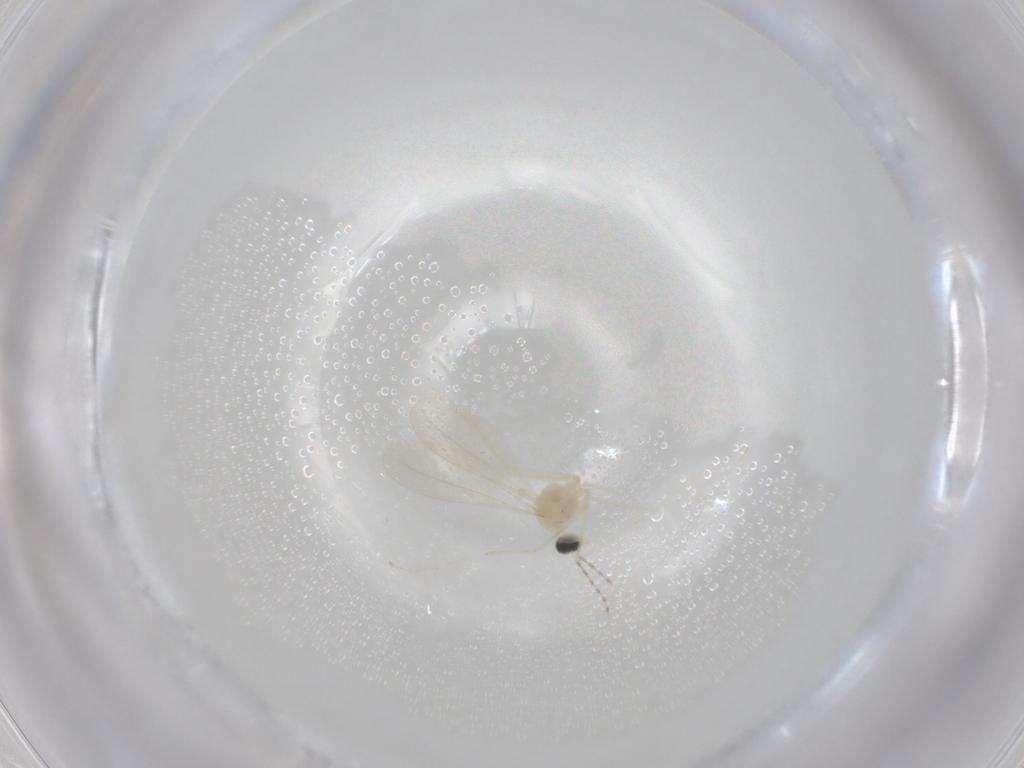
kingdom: Animalia
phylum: Arthropoda
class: Insecta
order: Diptera
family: Cecidomyiidae
